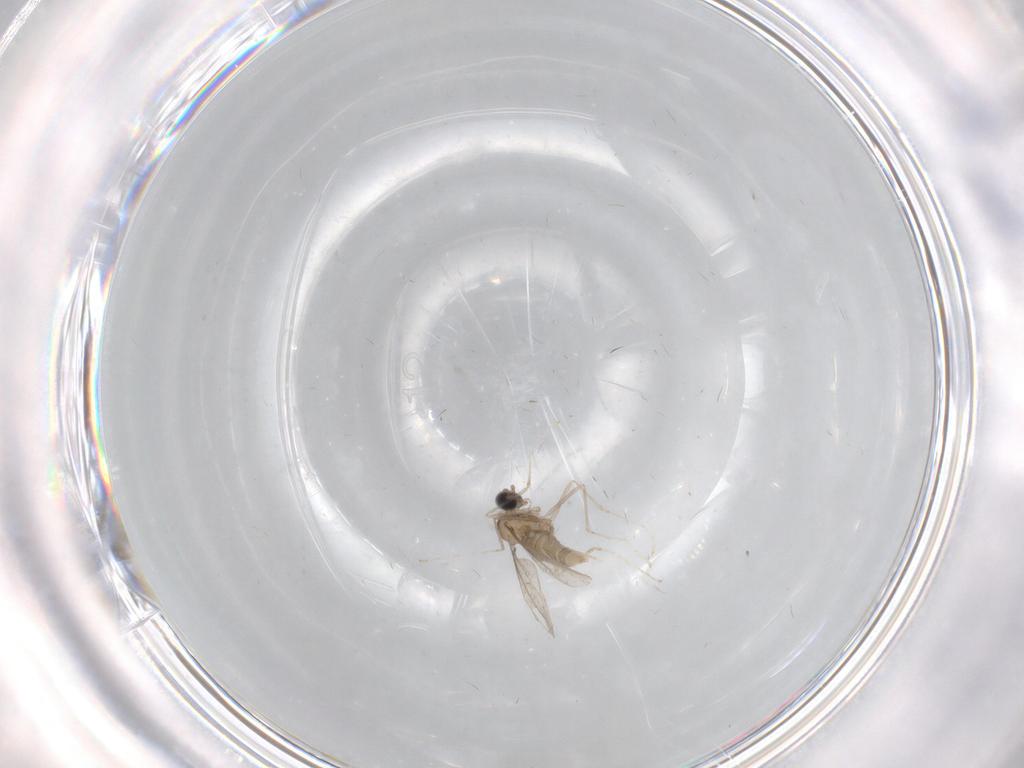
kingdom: Animalia
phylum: Arthropoda
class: Insecta
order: Diptera
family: Cecidomyiidae
